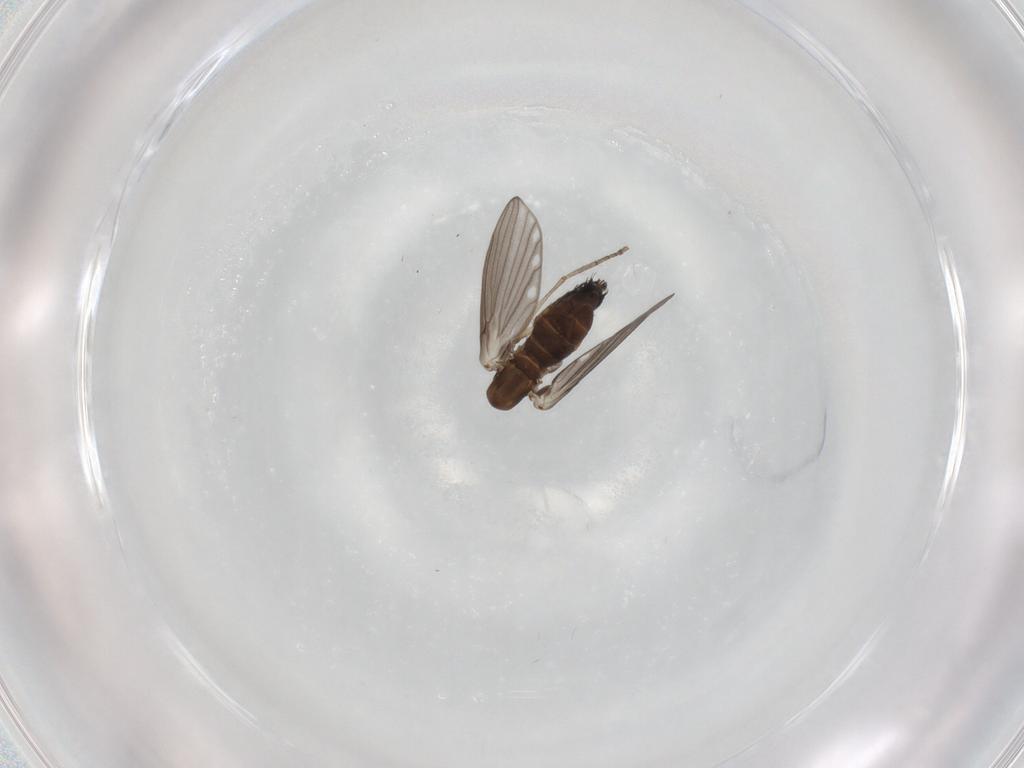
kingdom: Animalia
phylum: Arthropoda
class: Insecta
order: Diptera
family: Psychodidae
